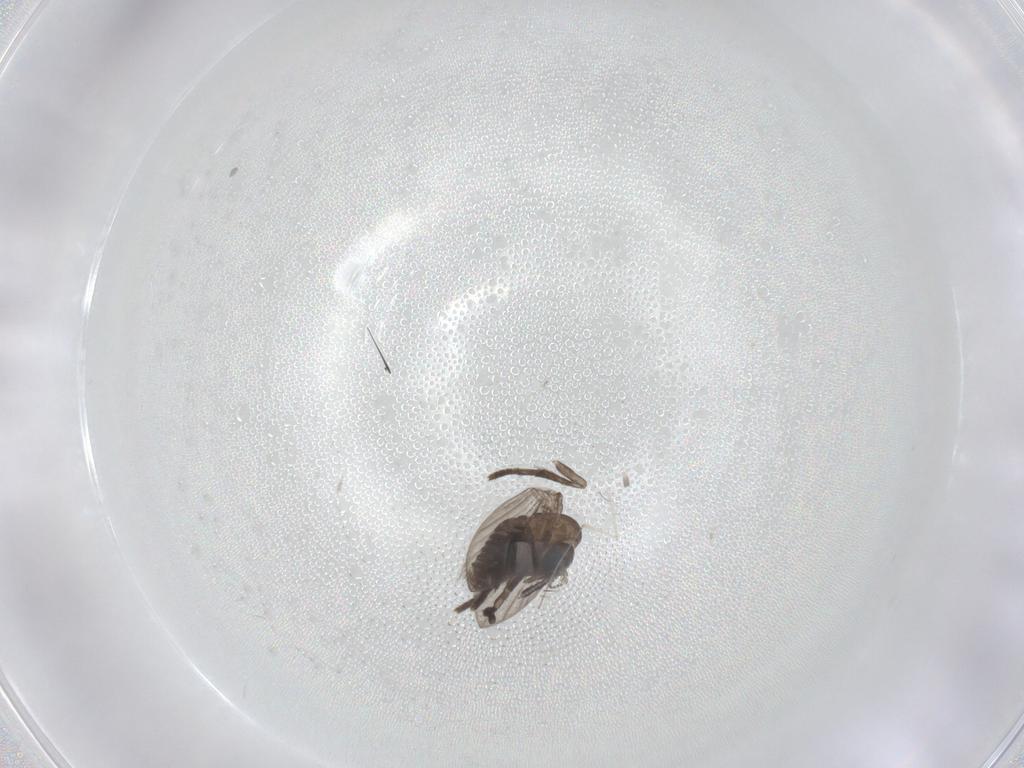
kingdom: Animalia
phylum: Arthropoda
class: Insecta
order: Diptera
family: Psychodidae
